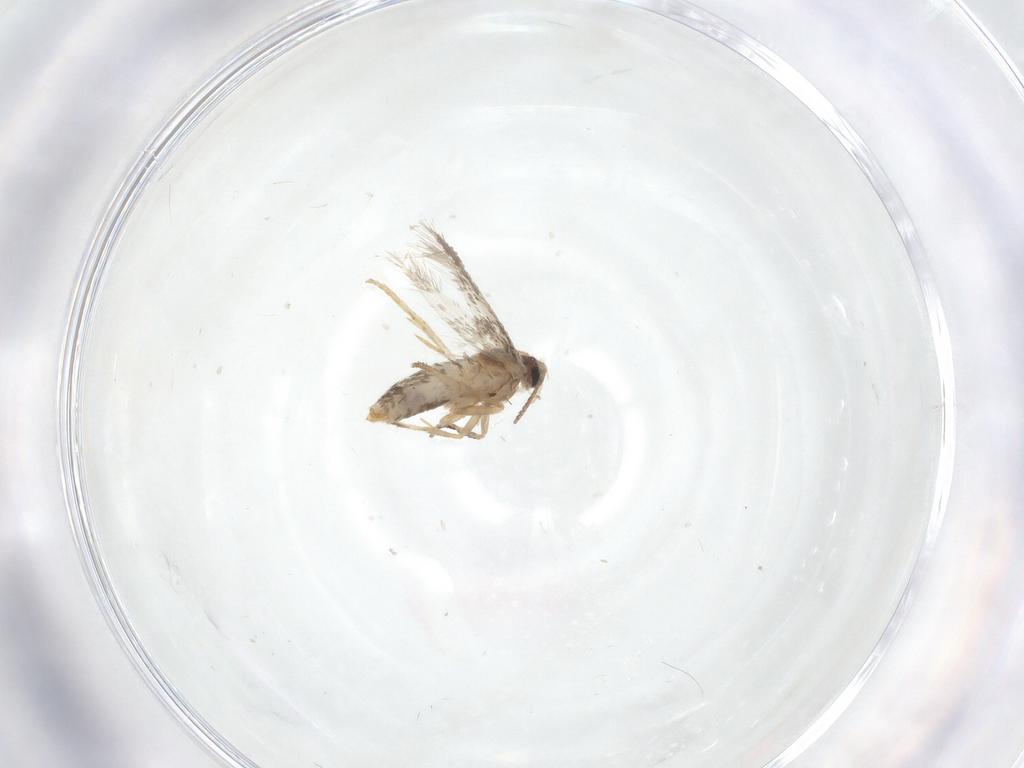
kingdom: Animalia
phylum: Arthropoda
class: Insecta
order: Lepidoptera
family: Nepticulidae
